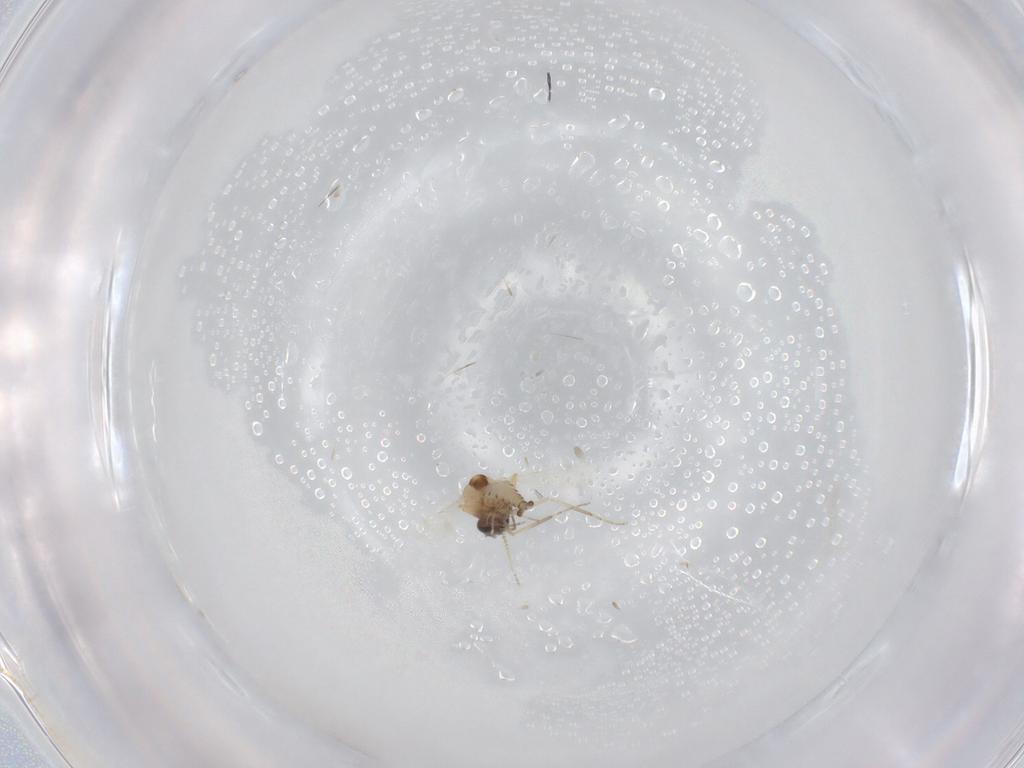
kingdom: Animalia
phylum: Arthropoda
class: Insecta
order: Diptera
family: Ceratopogonidae
